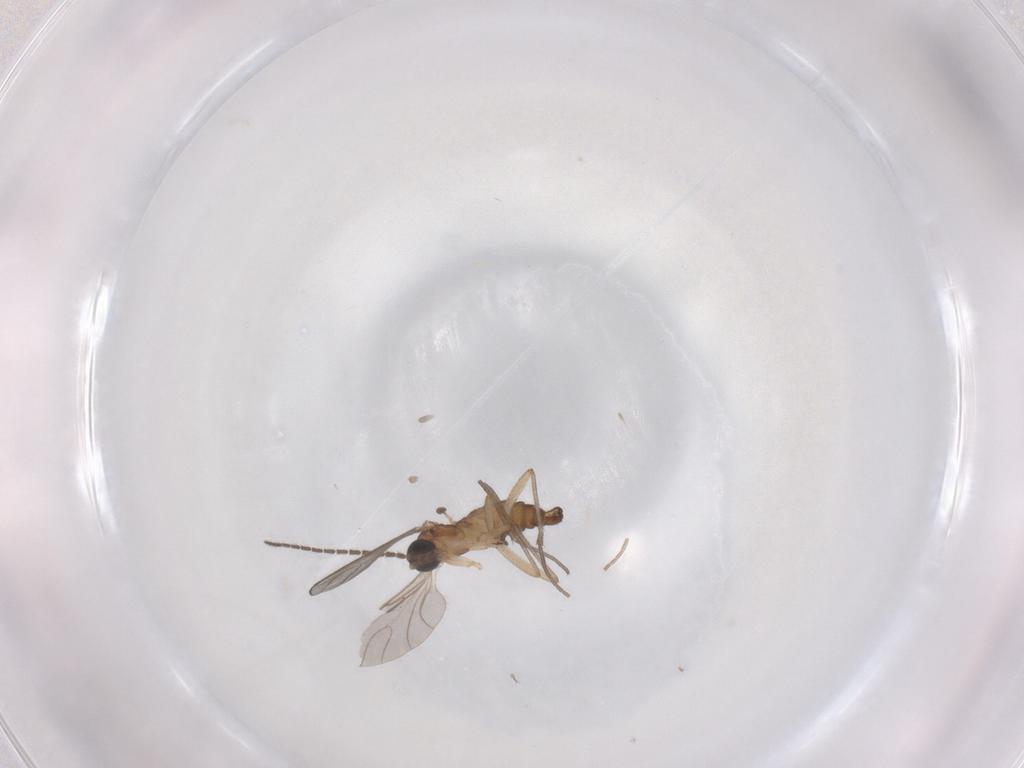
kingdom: Animalia
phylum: Arthropoda
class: Insecta
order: Diptera
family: Sciaridae
